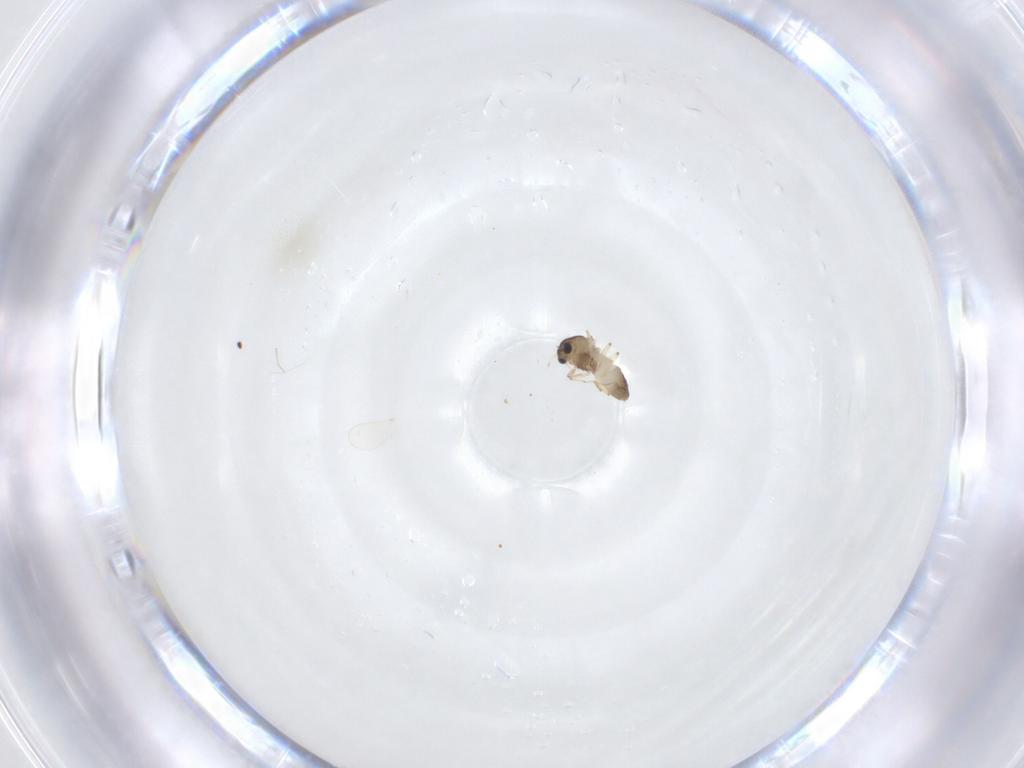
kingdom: Animalia
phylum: Arthropoda
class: Insecta
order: Diptera
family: Chironomidae
